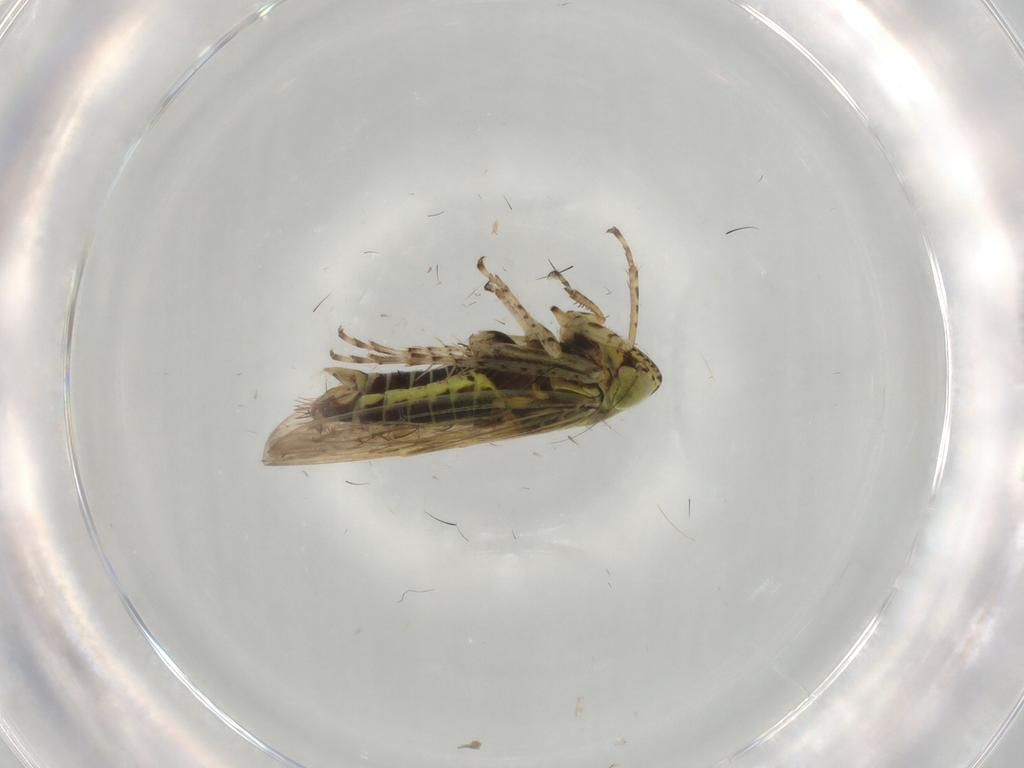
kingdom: Animalia
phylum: Arthropoda
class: Insecta
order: Hemiptera
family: Cicadellidae
